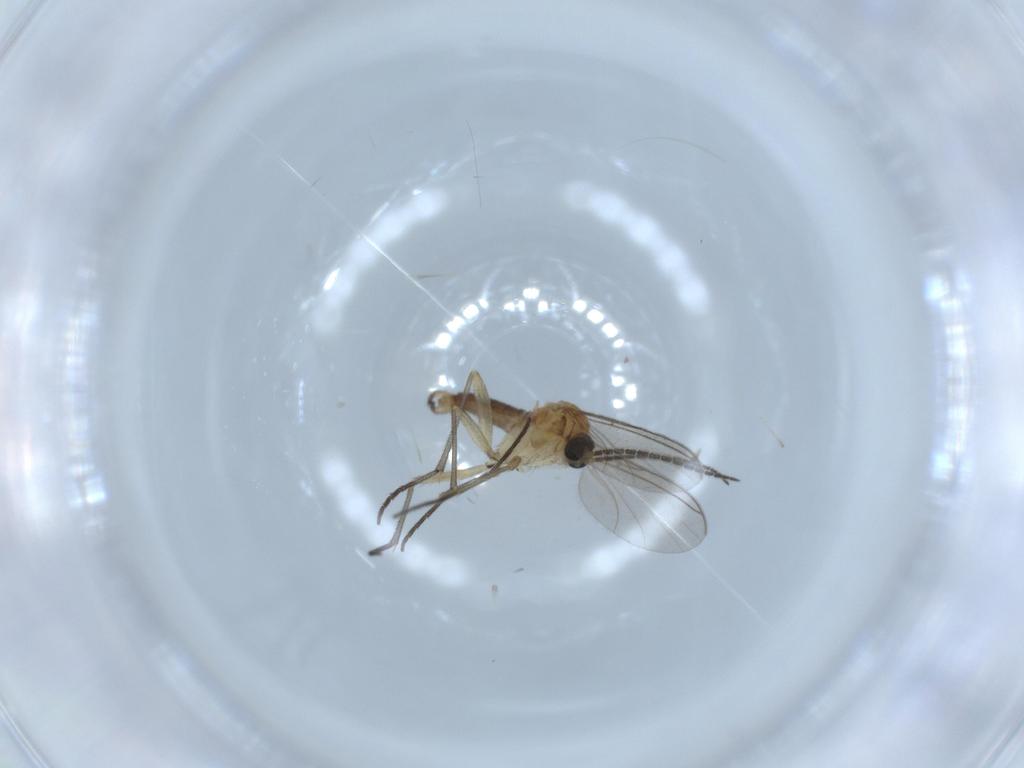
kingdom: Animalia
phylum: Arthropoda
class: Insecta
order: Diptera
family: Sciaridae
